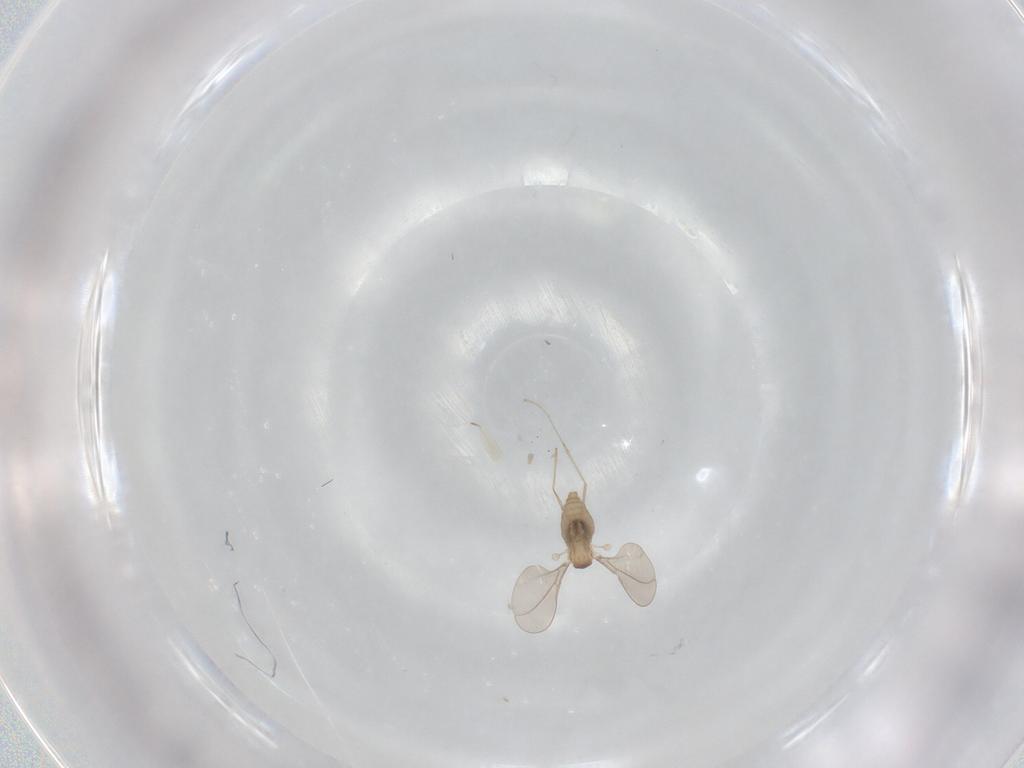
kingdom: Animalia
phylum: Arthropoda
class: Insecta
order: Diptera
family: Cecidomyiidae
